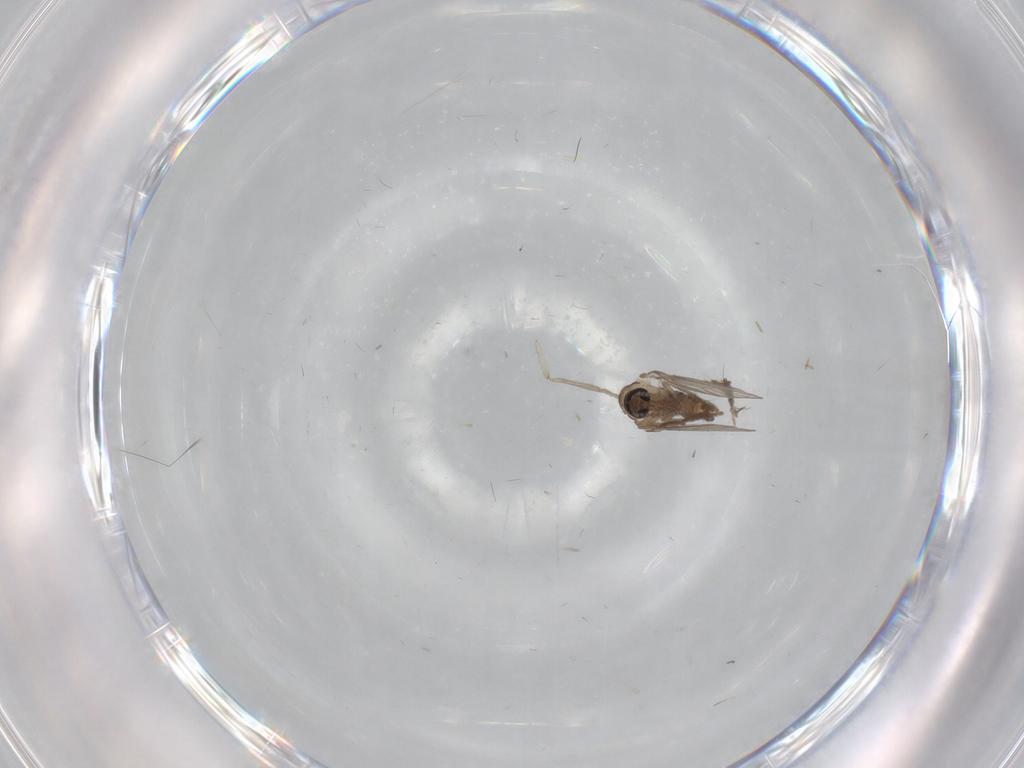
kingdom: Animalia
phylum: Arthropoda
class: Insecta
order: Diptera
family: Psychodidae
